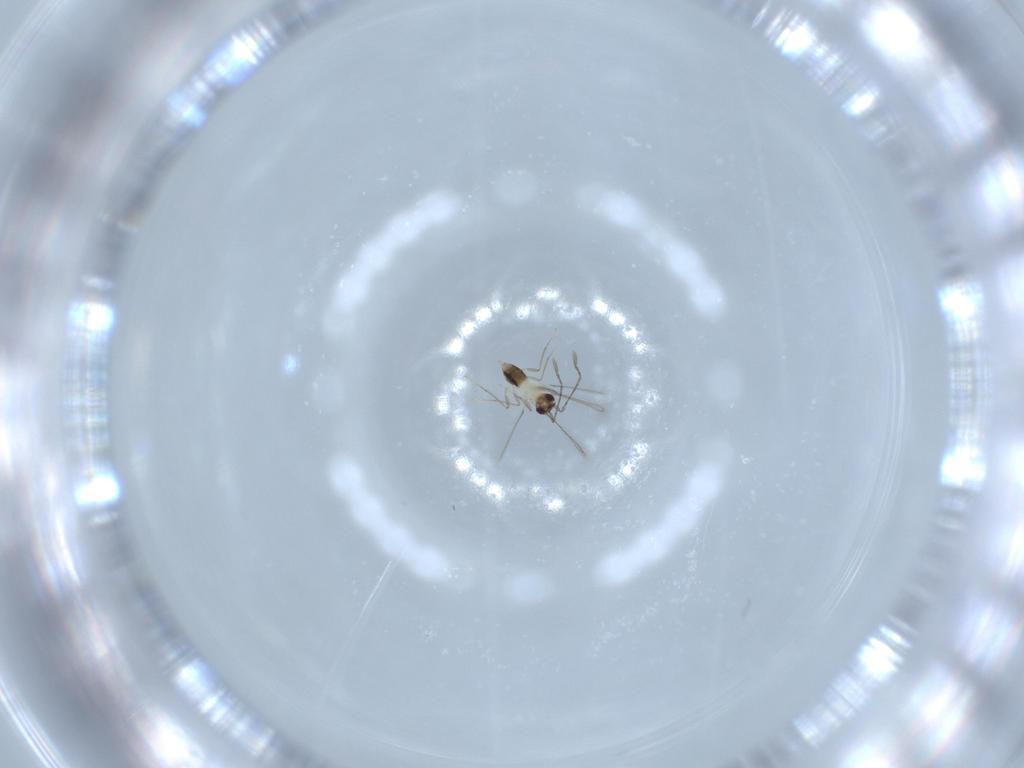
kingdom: Animalia
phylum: Arthropoda
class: Insecta
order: Hymenoptera
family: Mymaridae
